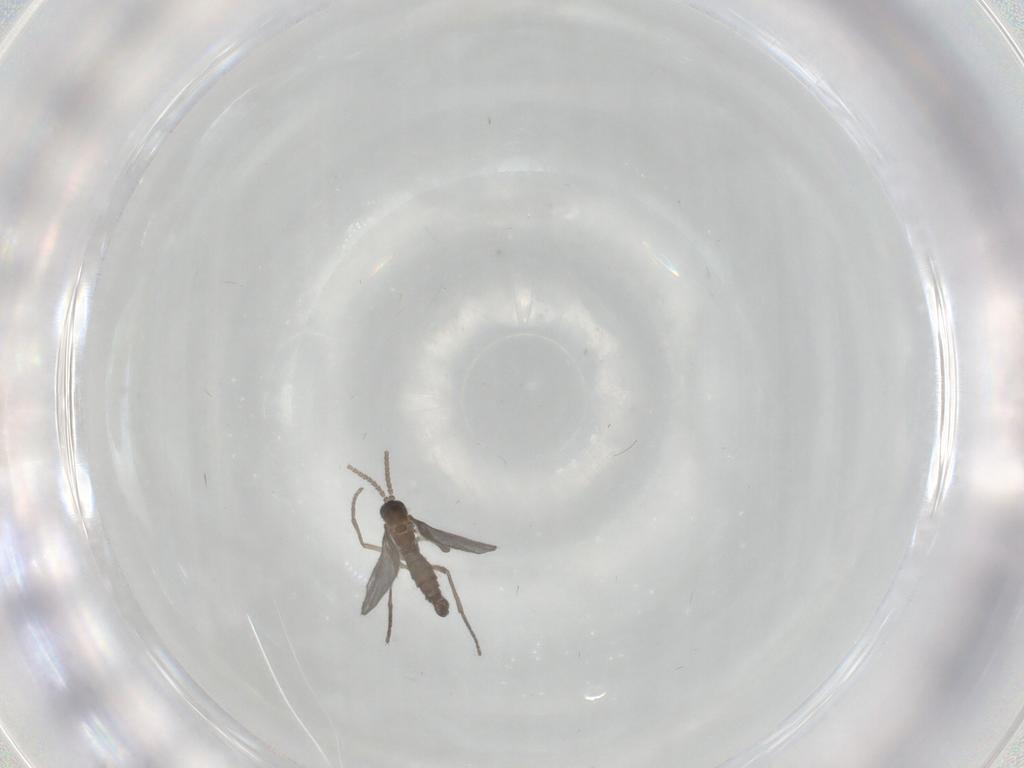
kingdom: Animalia
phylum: Arthropoda
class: Insecta
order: Diptera
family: Sciaridae
